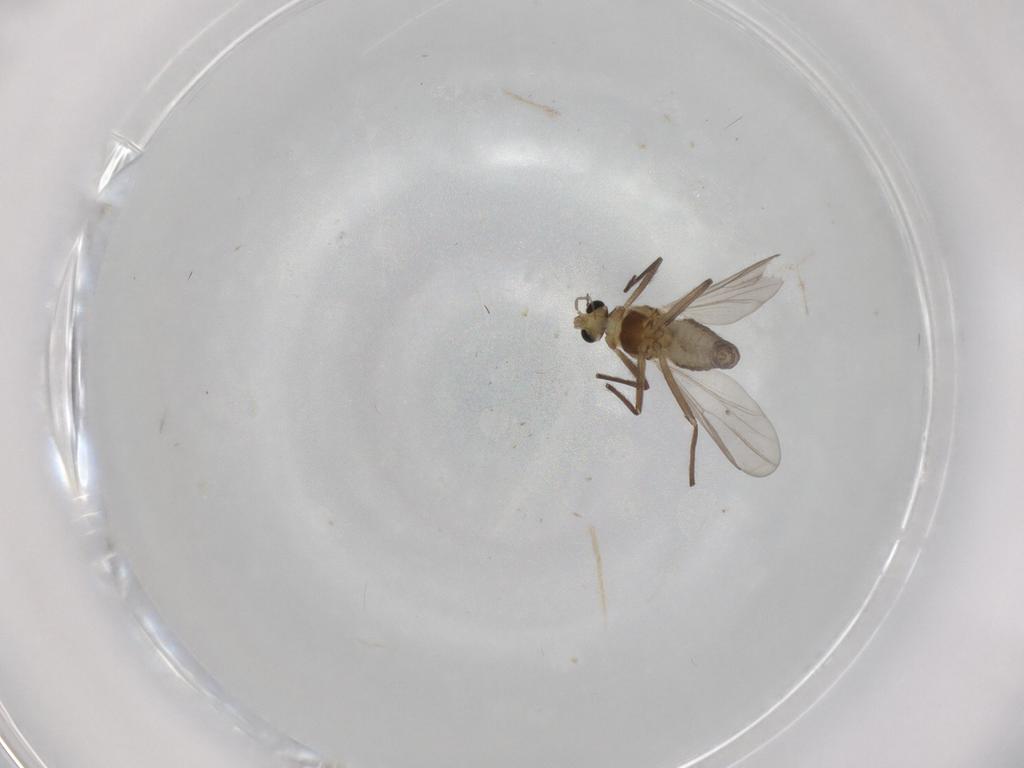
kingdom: Animalia
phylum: Arthropoda
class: Insecta
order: Diptera
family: Chironomidae
